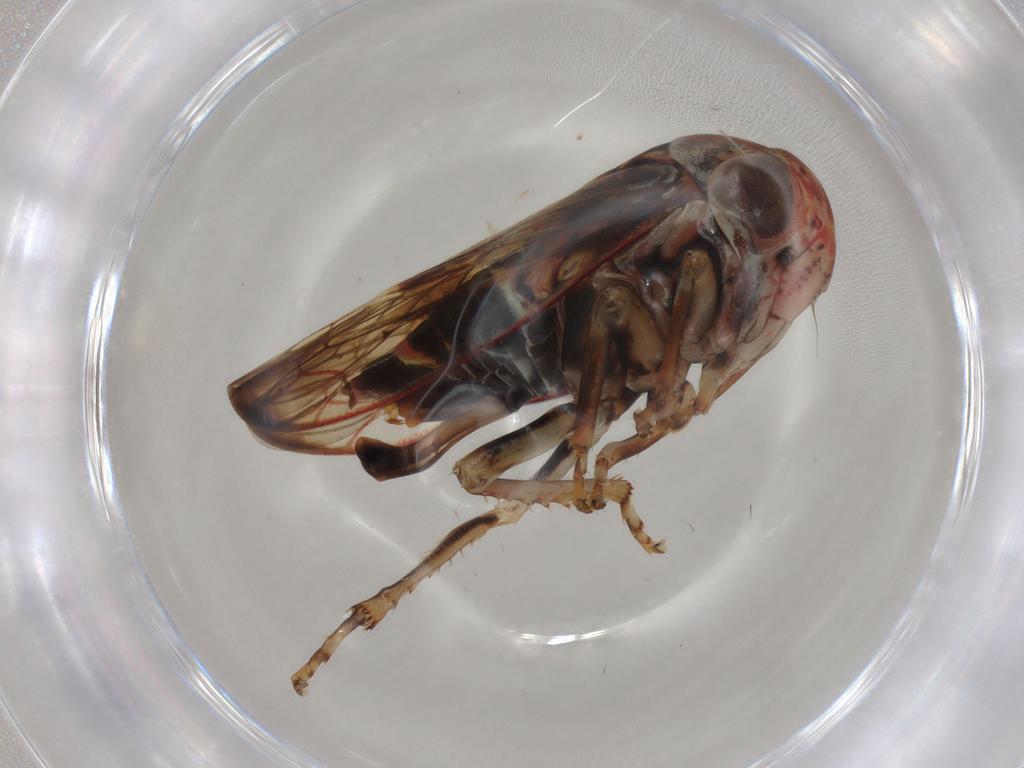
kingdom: Animalia
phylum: Arthropoda
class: Insecta
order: Hemiptera
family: Cicadellidae
